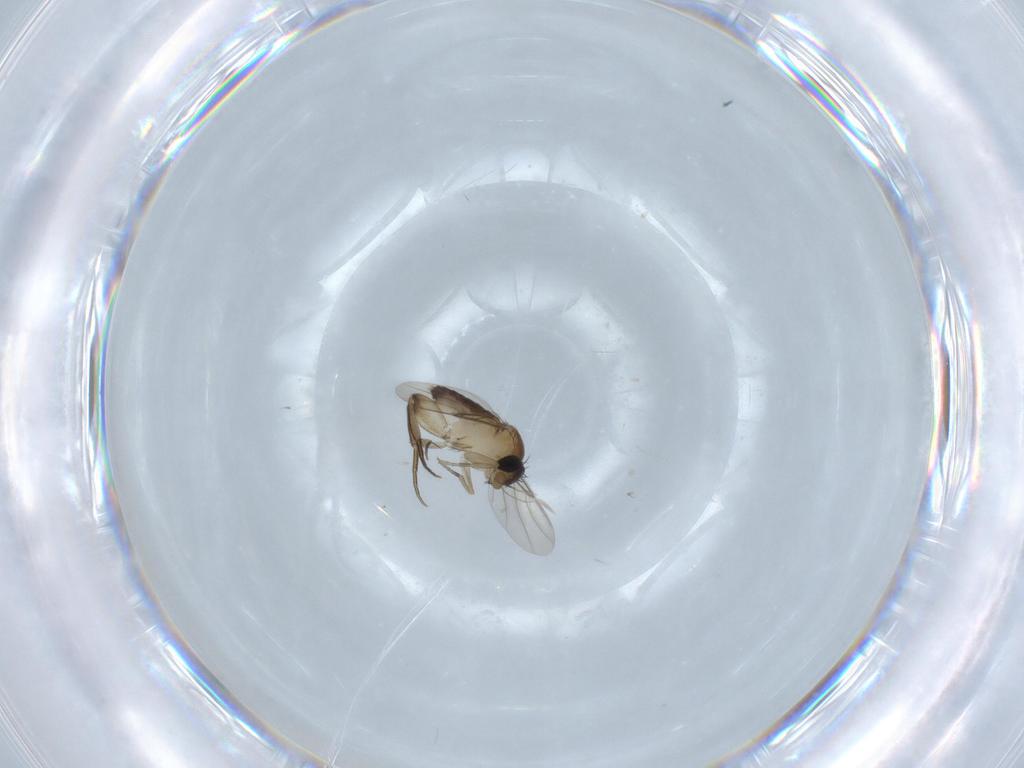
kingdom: Animalia
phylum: Arthropoda
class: Insecta
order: Diptera
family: Phoridae
